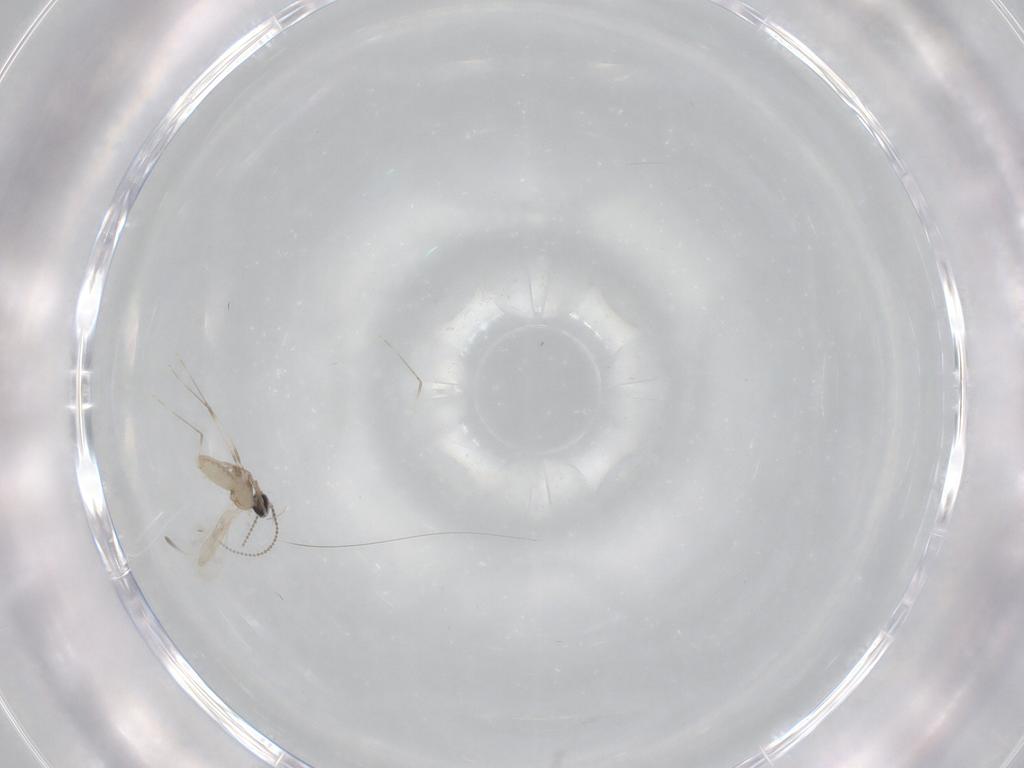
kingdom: Animalia
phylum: Arthropoda
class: Insecta
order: Diptera
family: Cecidomyiidae
